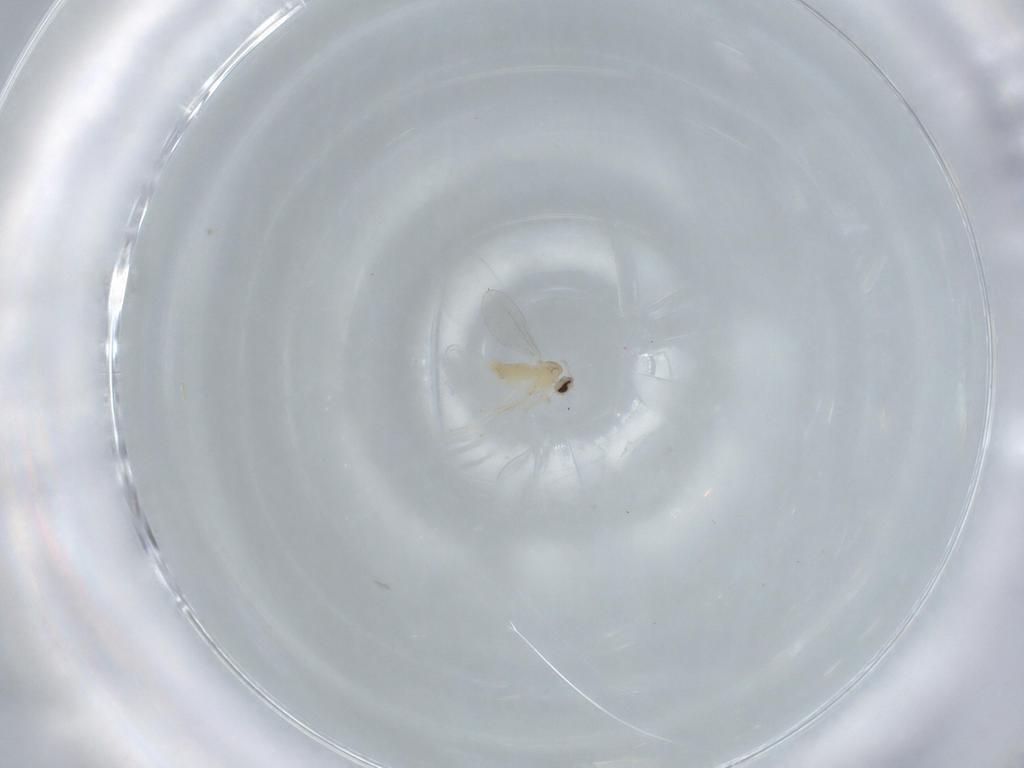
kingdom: Animalia
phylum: Arthropoda
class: Insecta
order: Diptera
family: Cecidomyiidae
